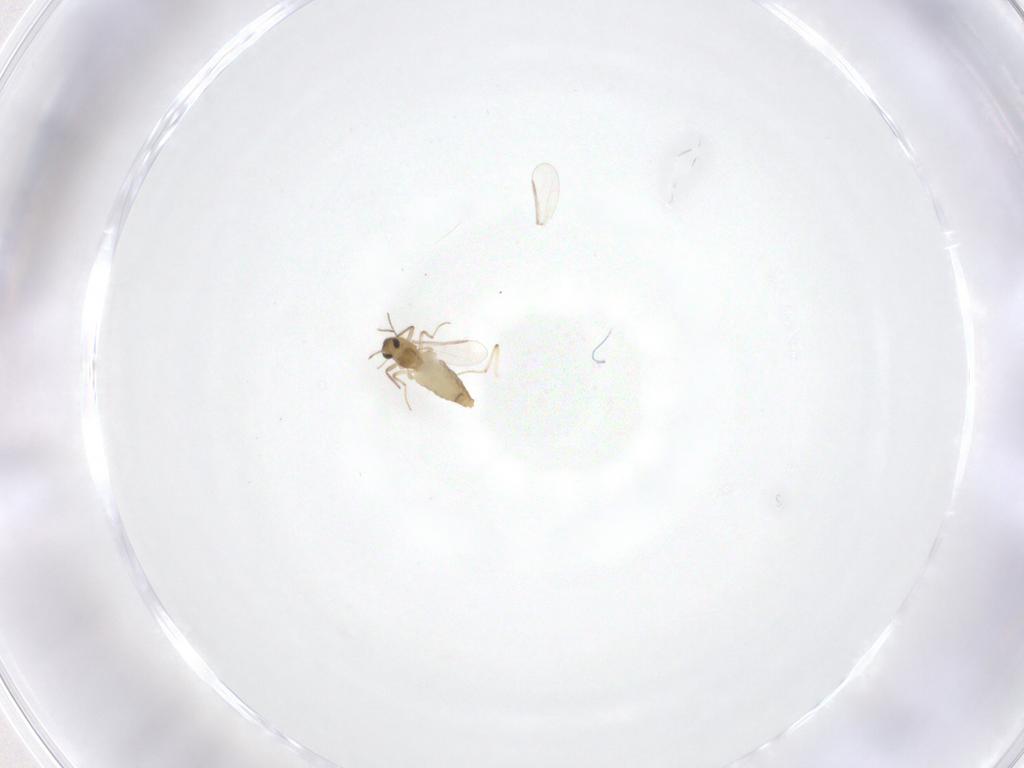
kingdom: Animalia
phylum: Arthropoda
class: Insecta
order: Diptera
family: Chironomidae
